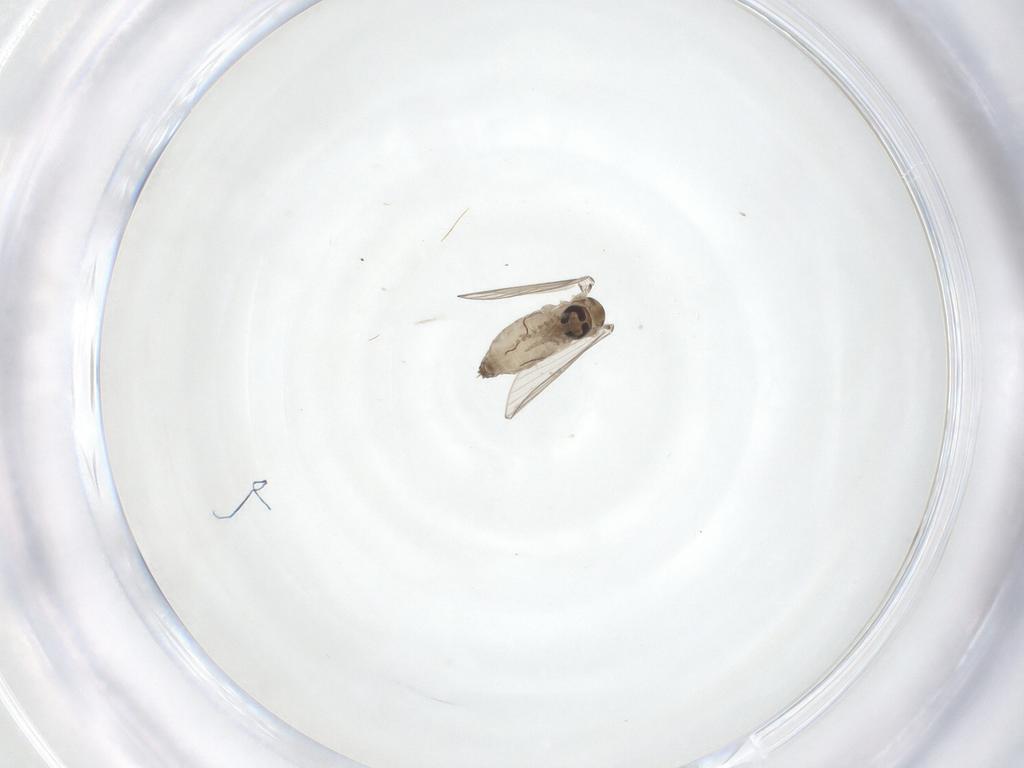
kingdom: Animalia
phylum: Arthropoda
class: Insecta
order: Diptera
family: Psychodidae
